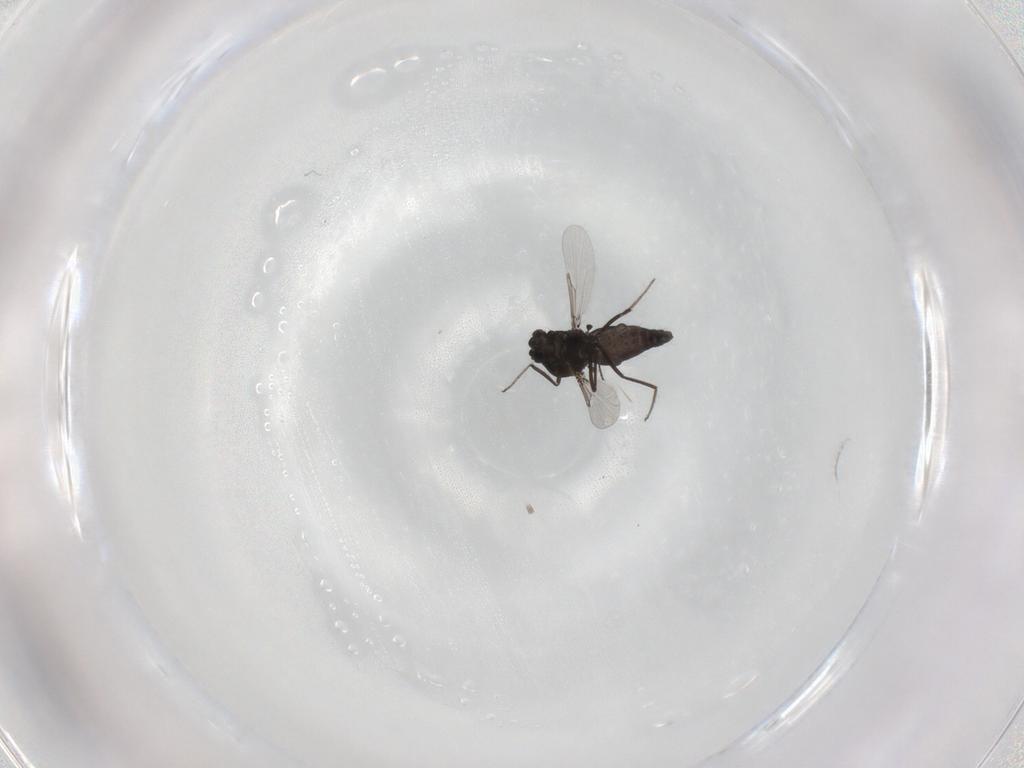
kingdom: Animalia
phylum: Arthropoda
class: Insecta
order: Diptera
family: Ceratopogonidae
